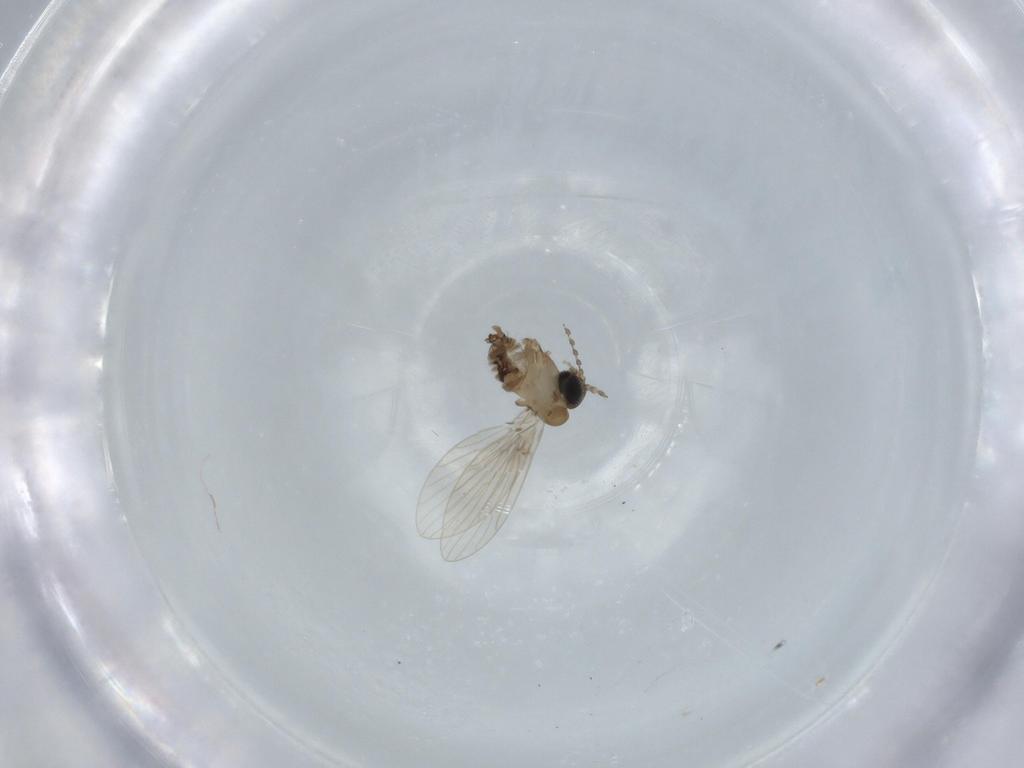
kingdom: Animalia
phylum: Arthropoda
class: Insecta
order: Diptera
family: Psychodidae
